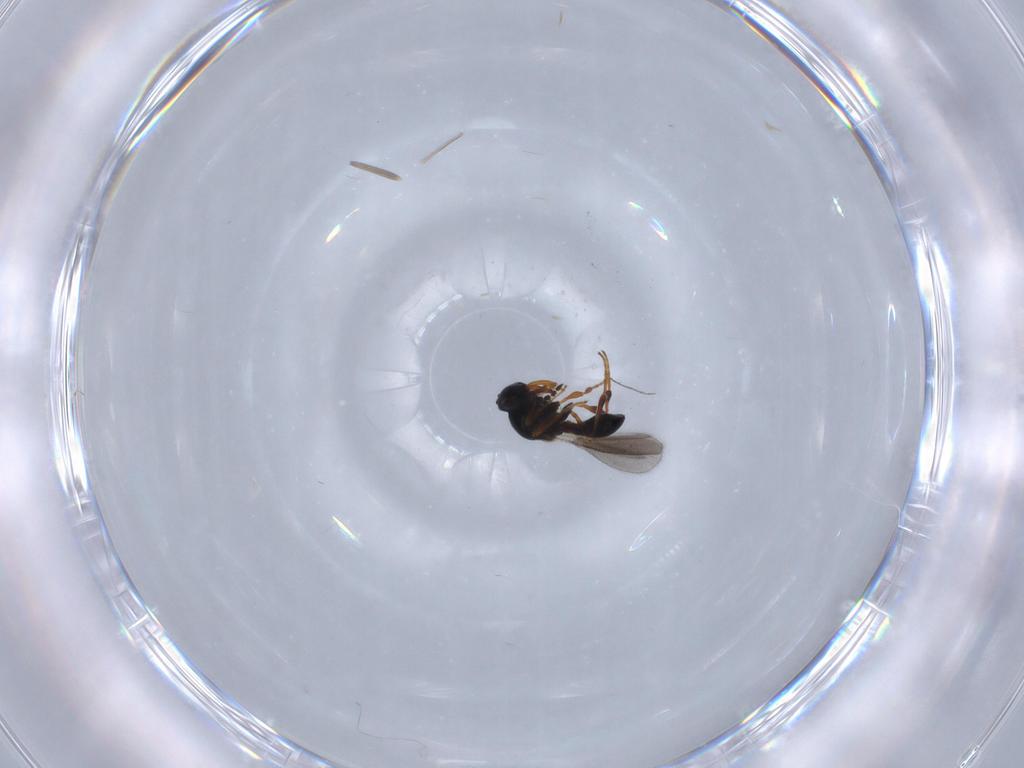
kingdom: Animalia
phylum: Arthropoda
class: Insecta
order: Hymenoptera
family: Platygastridae
